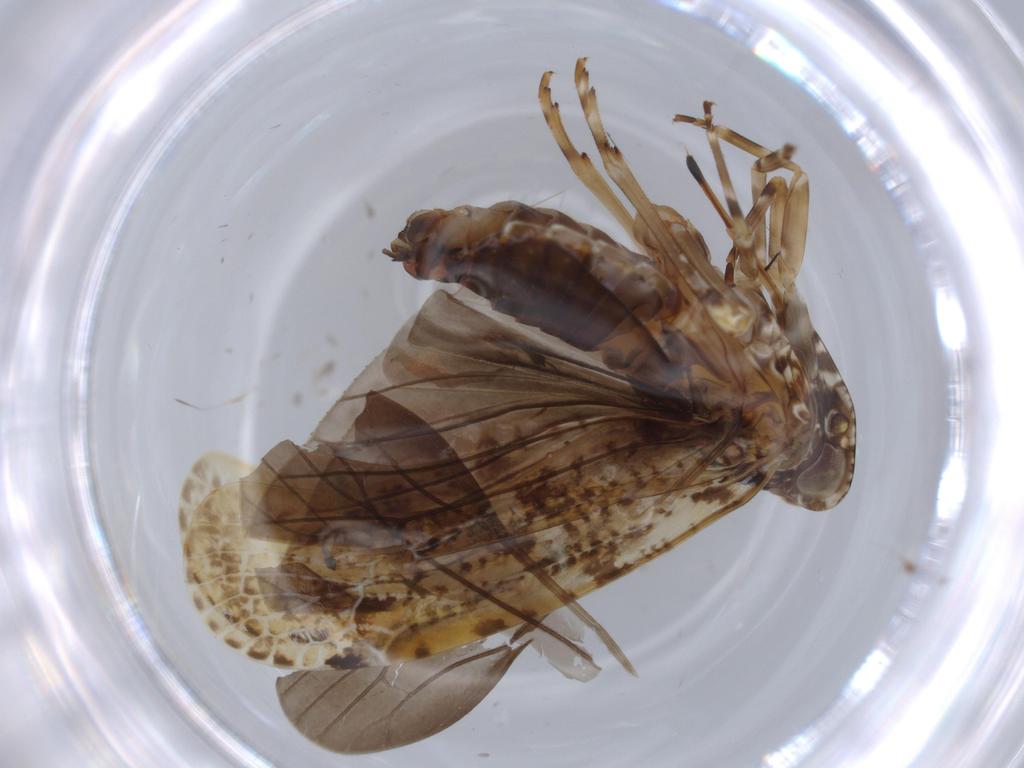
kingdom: Animalia
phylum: Arthropoda
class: Insecta
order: Hemiptera
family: Achilidae
